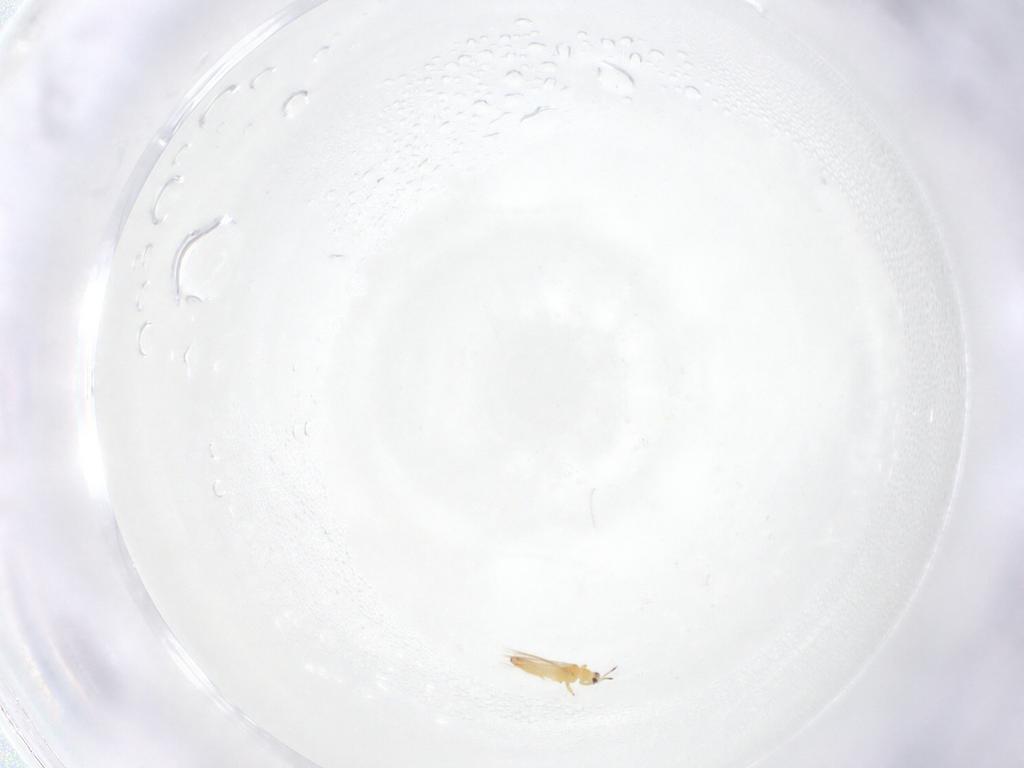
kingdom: Animalia
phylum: Arthropoda
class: Insecta
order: Thysanoptera
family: Thripidae
